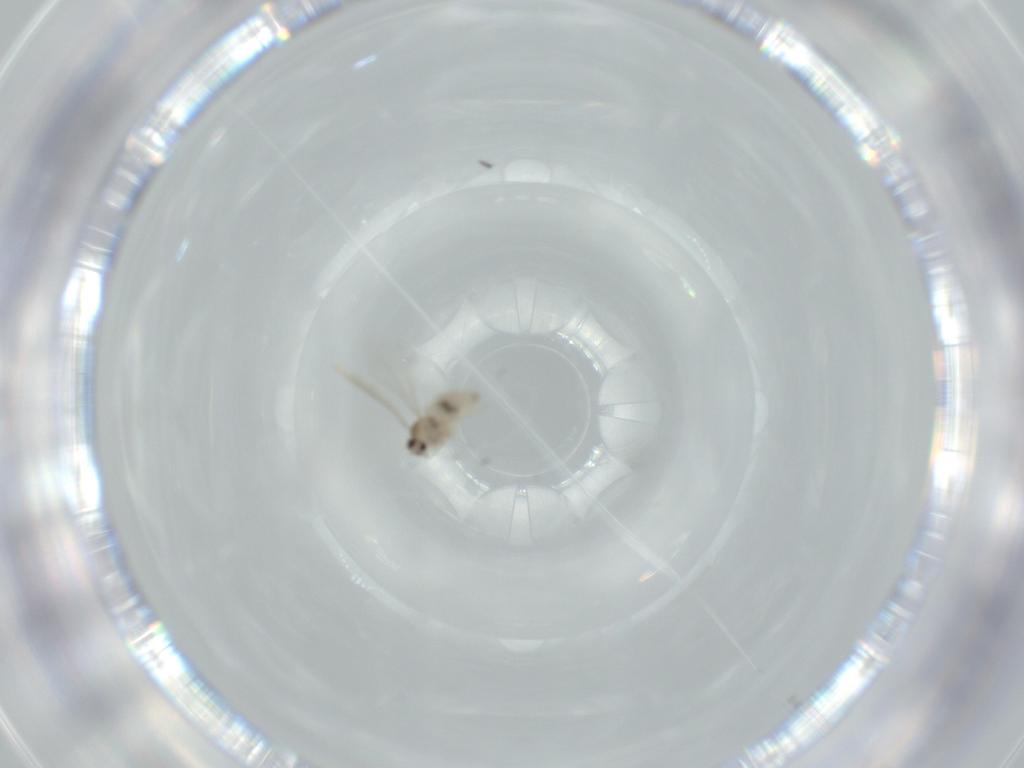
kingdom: Animalia
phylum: Arthropoda
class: Insecta
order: Diptera
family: Cecidomyiidae
